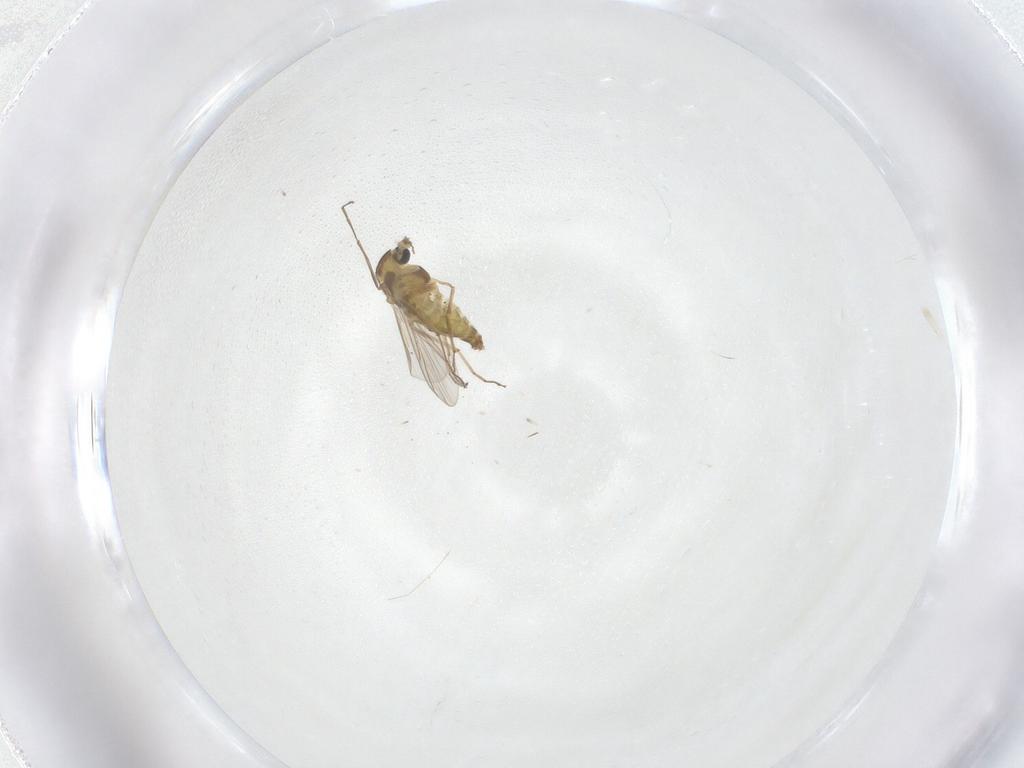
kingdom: Animalia
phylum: Arthropoda
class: Insecta
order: Diptera
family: Chironomidae
